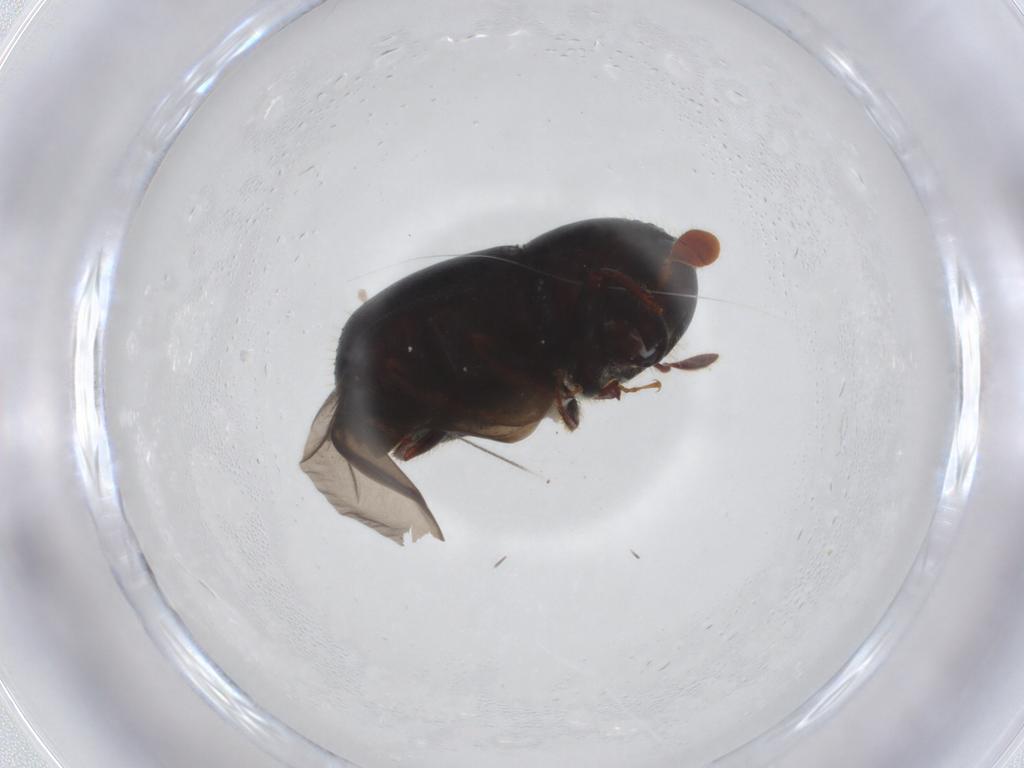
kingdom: Animalia
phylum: Arthropoda
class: Insecta
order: Coleoptera
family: Curculionidae
